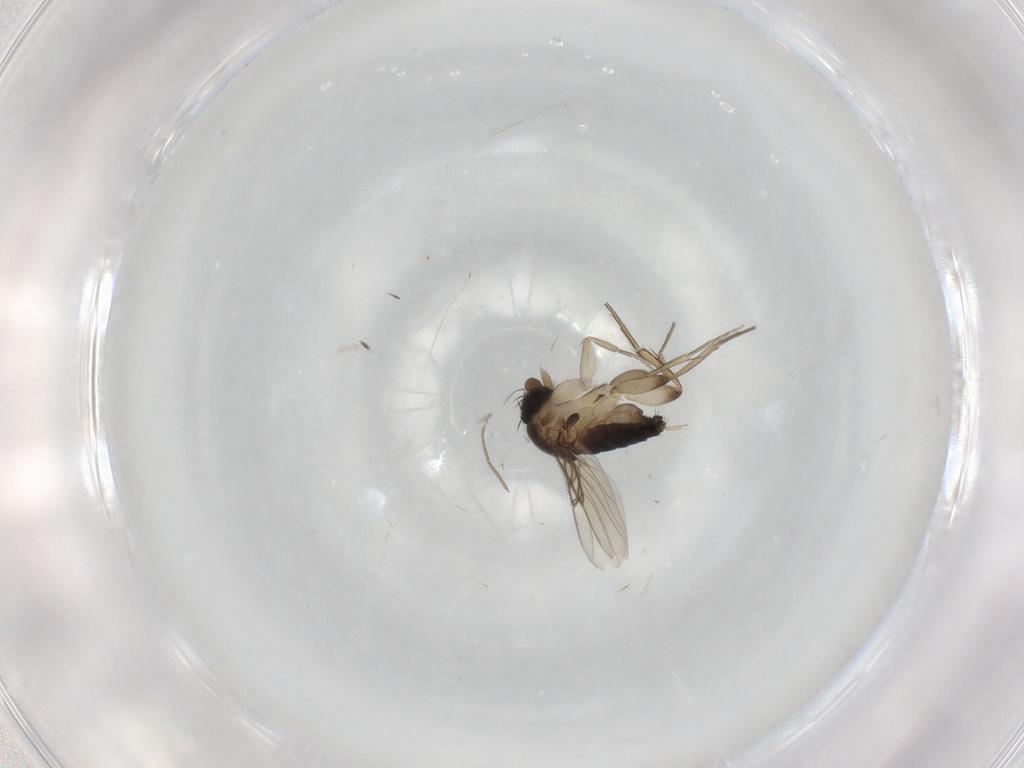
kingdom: Animalia
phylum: Arthropoda
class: Insecta
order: Diptera
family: Phoridae
